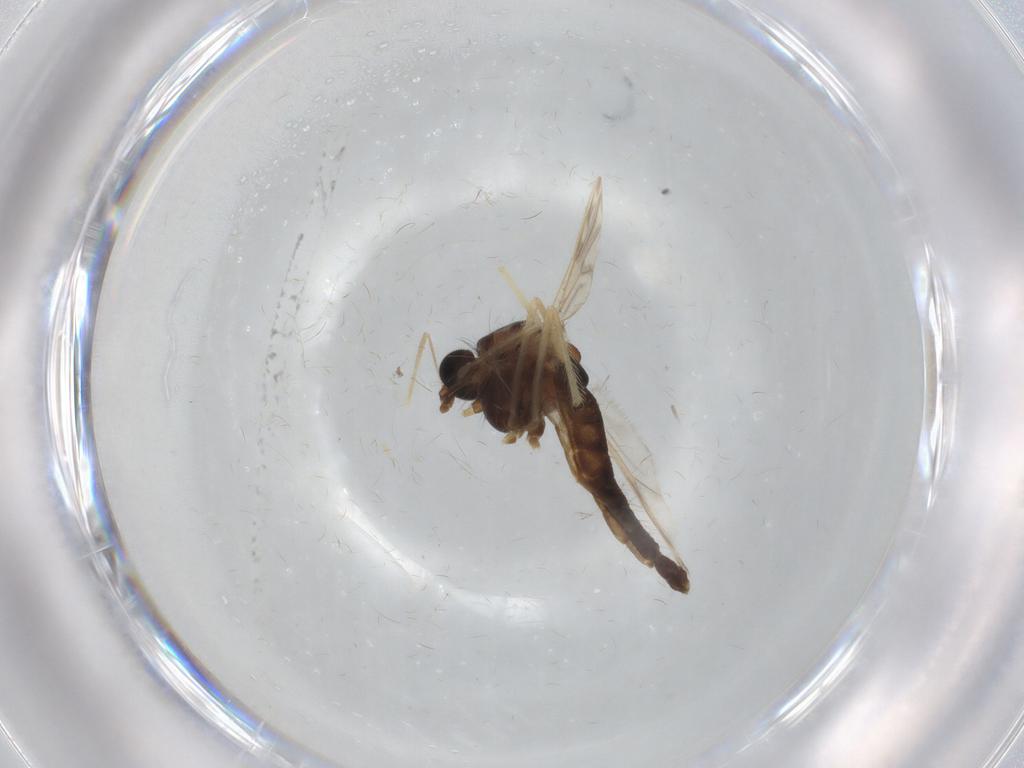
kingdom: Animalia
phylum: Arthropoda
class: Insecta
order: Diptera
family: Chironomidae
